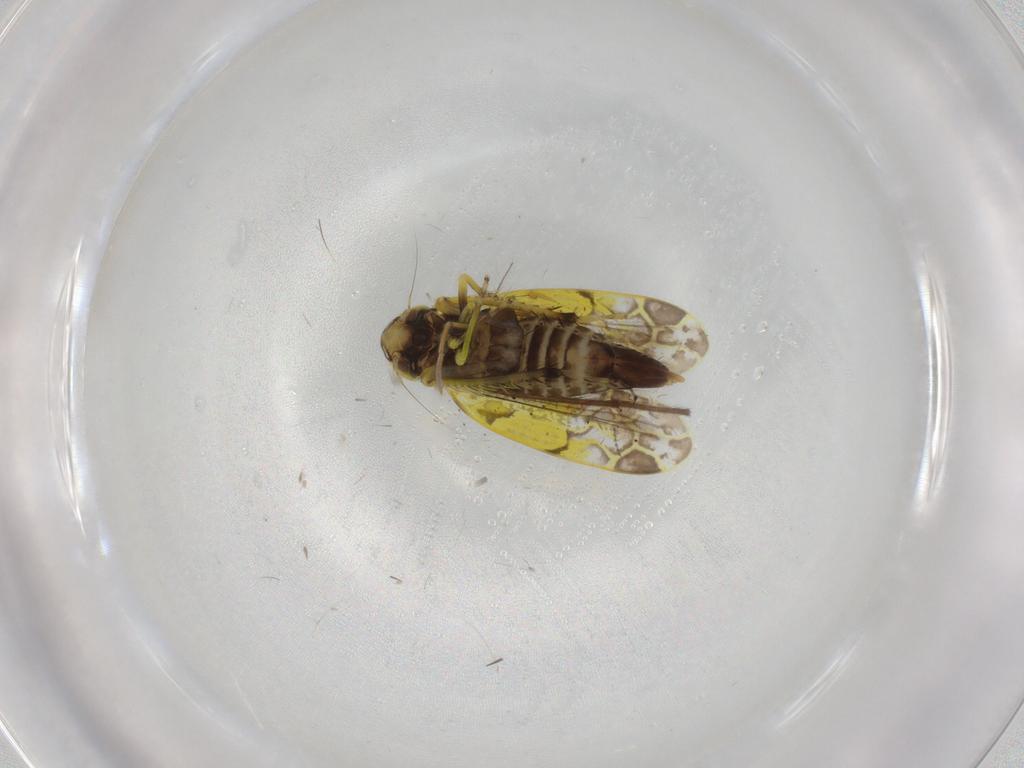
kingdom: Animalia
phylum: Arthropoda
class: Insecta
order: Hemiptera
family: Cicadellidae
